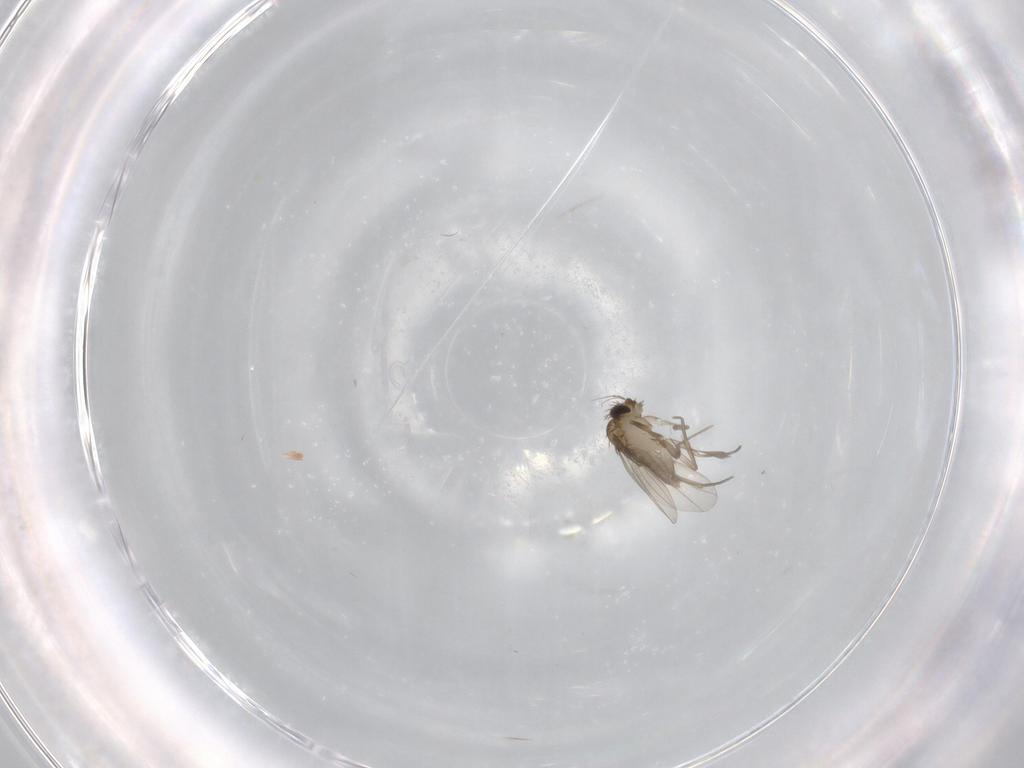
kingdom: Animalia
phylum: Arthropoda
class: Insecta
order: Diptera
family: Phoridae
